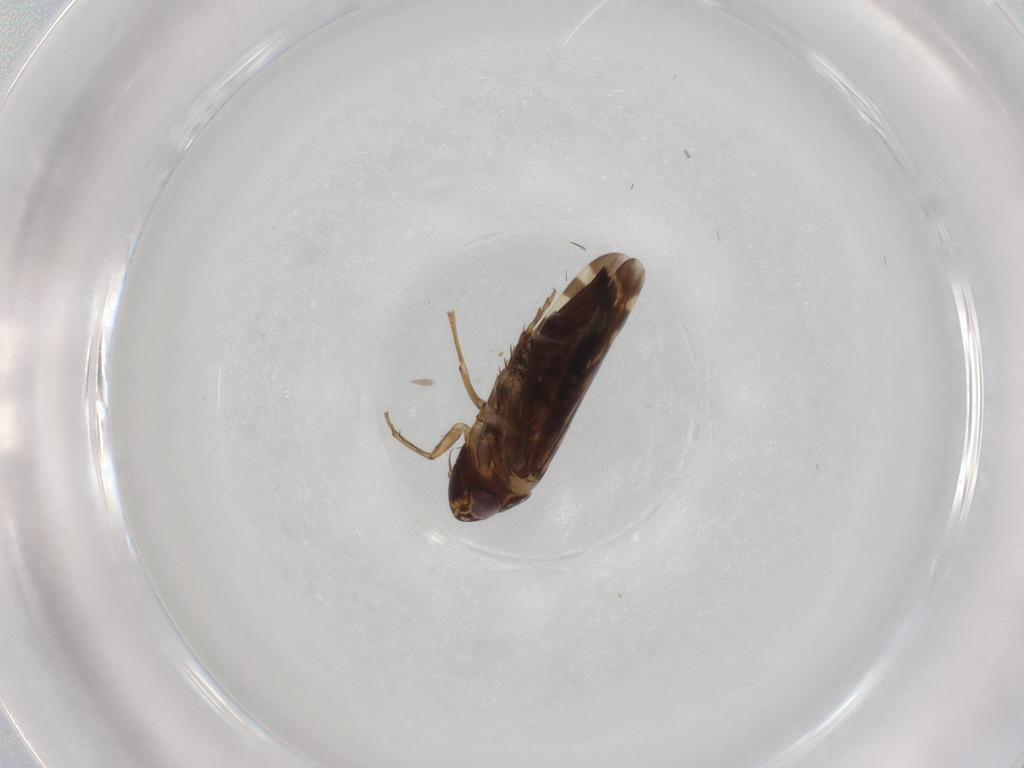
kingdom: Animalia
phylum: Arthropoda
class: Insecta
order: Hemiptera
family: Cicadellidae
